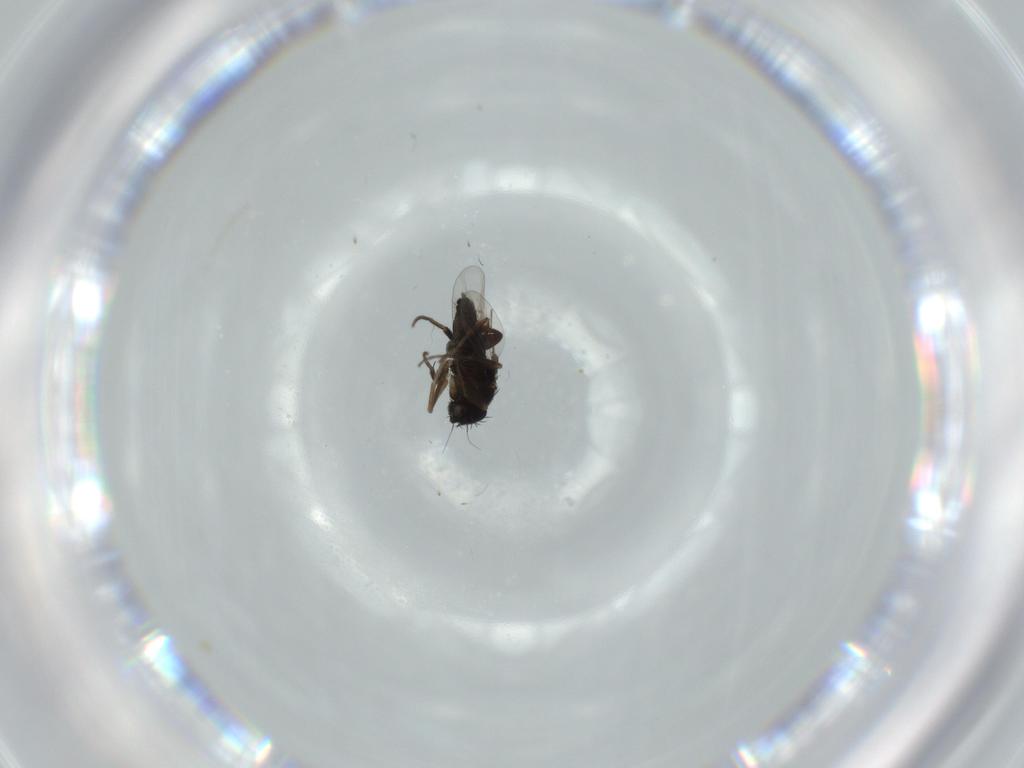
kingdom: Animalia
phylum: Arthropoda
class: Insecta
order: Diptera
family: Phoridae
